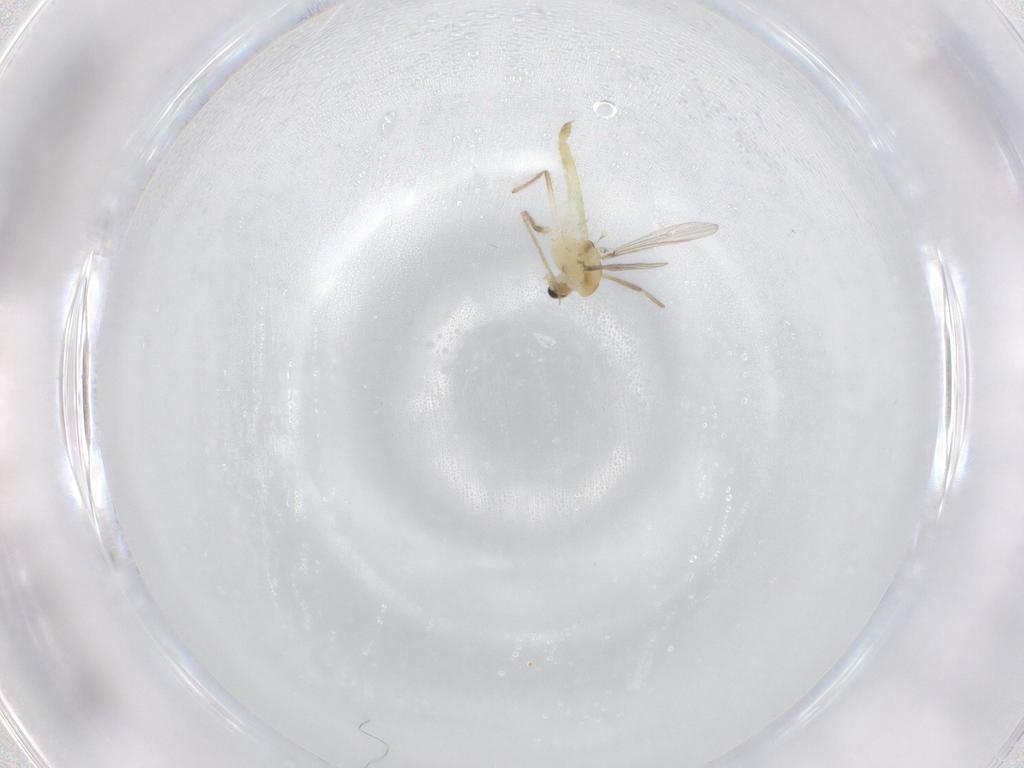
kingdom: Animalia
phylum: Arthropoda
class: Insecta
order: Diptera
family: Chironomidae
